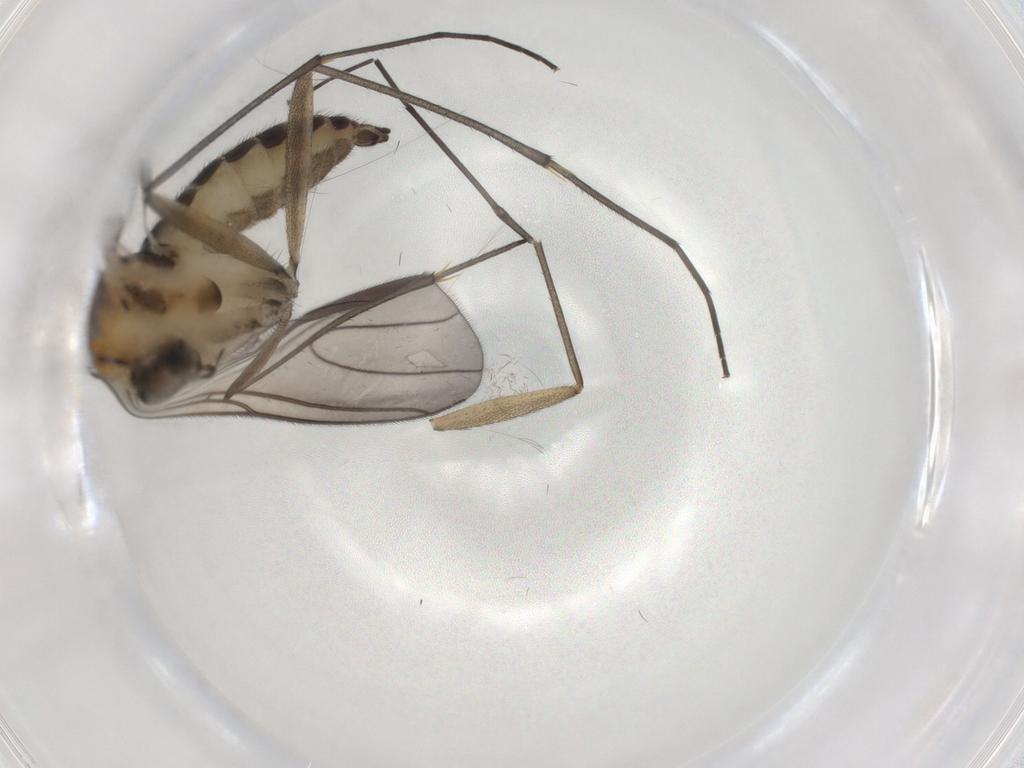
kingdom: Animalia
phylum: Arthropoda
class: Insecta
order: Diptera
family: Sciaridae
